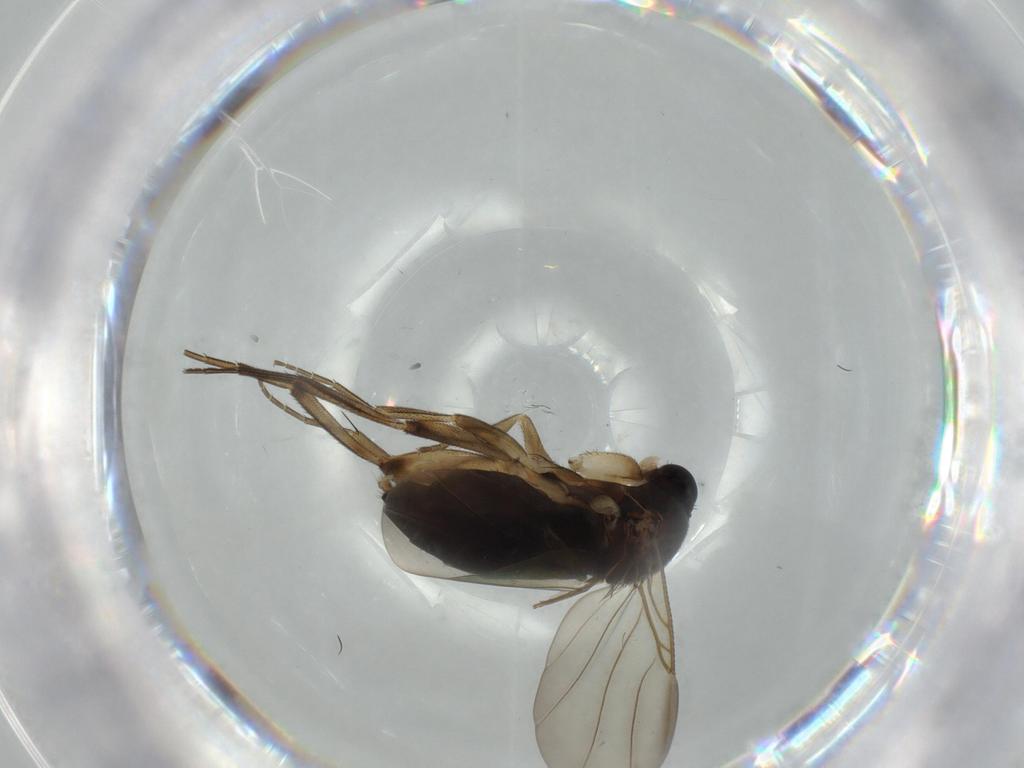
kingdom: Animalia
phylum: Arthropoda
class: Insecta
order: Diptera
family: Phoridae
